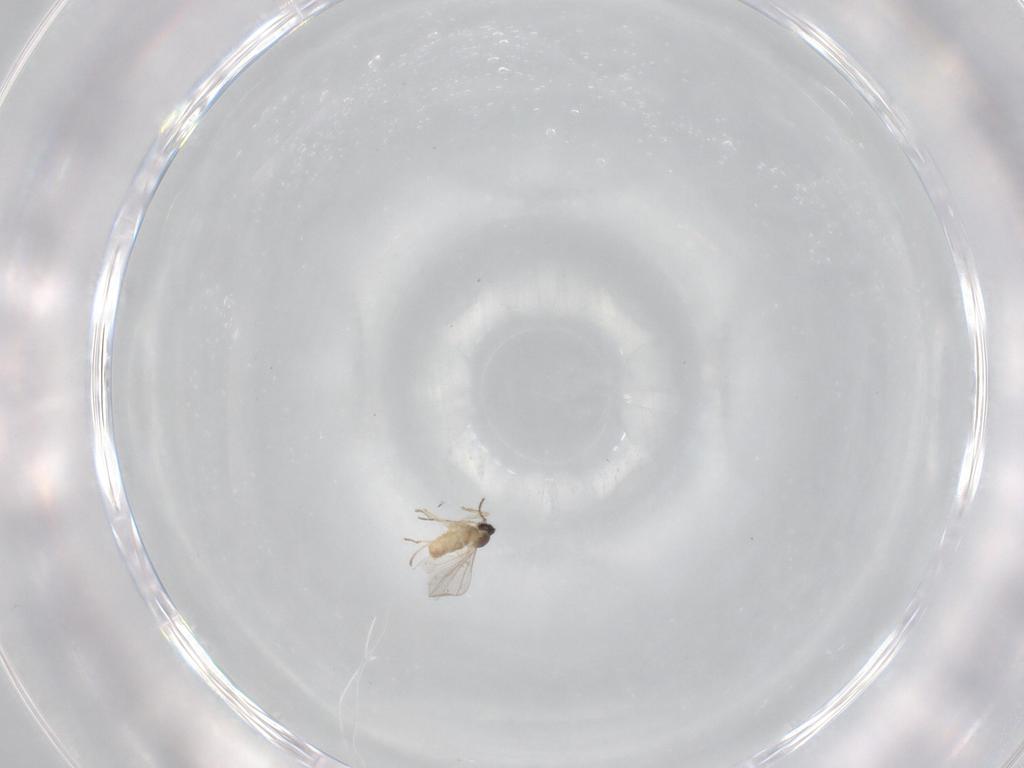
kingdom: Animalia
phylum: Arthropoda
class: Insecta
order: Diptera
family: Cecidomyiidae
